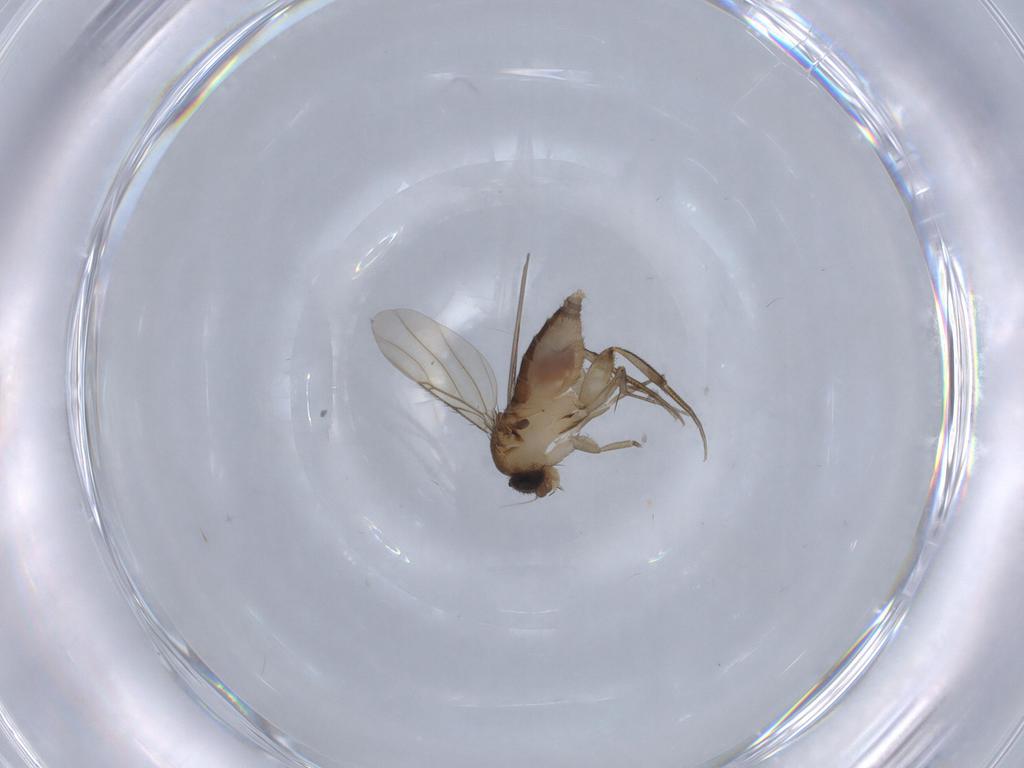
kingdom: Animalia
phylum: Arthropoda
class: Insecta
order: Diptera
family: Phoridae
